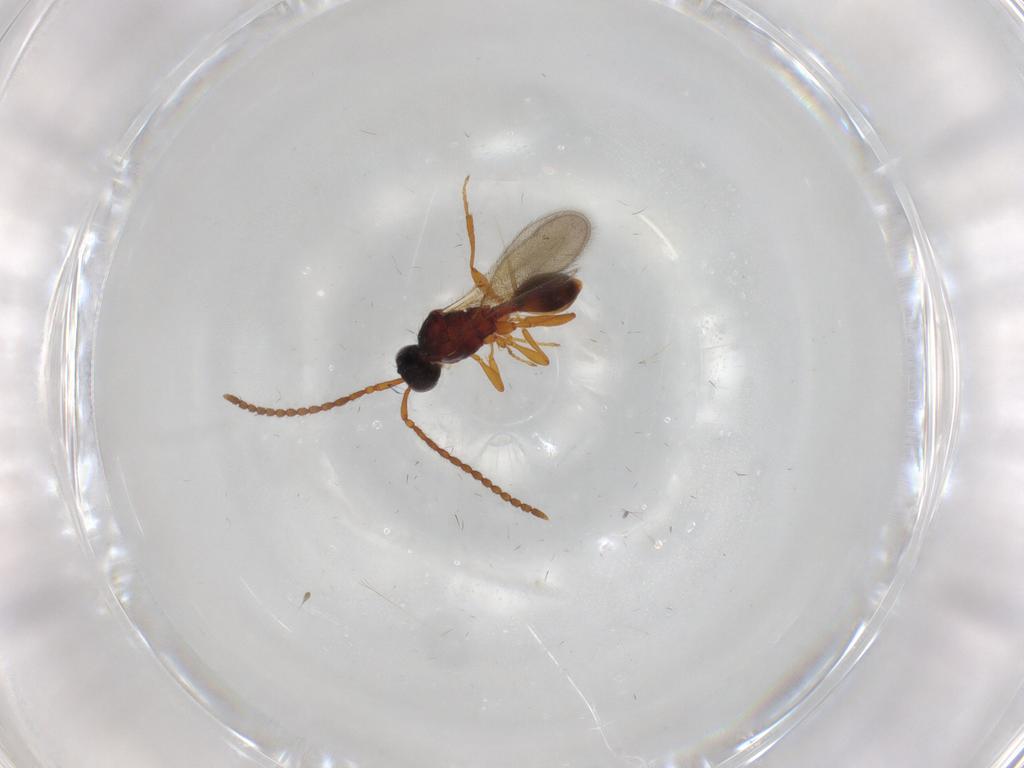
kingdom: Animalia
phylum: Arthropoda
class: Insecta
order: Hymenoptera
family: Diapriidae
